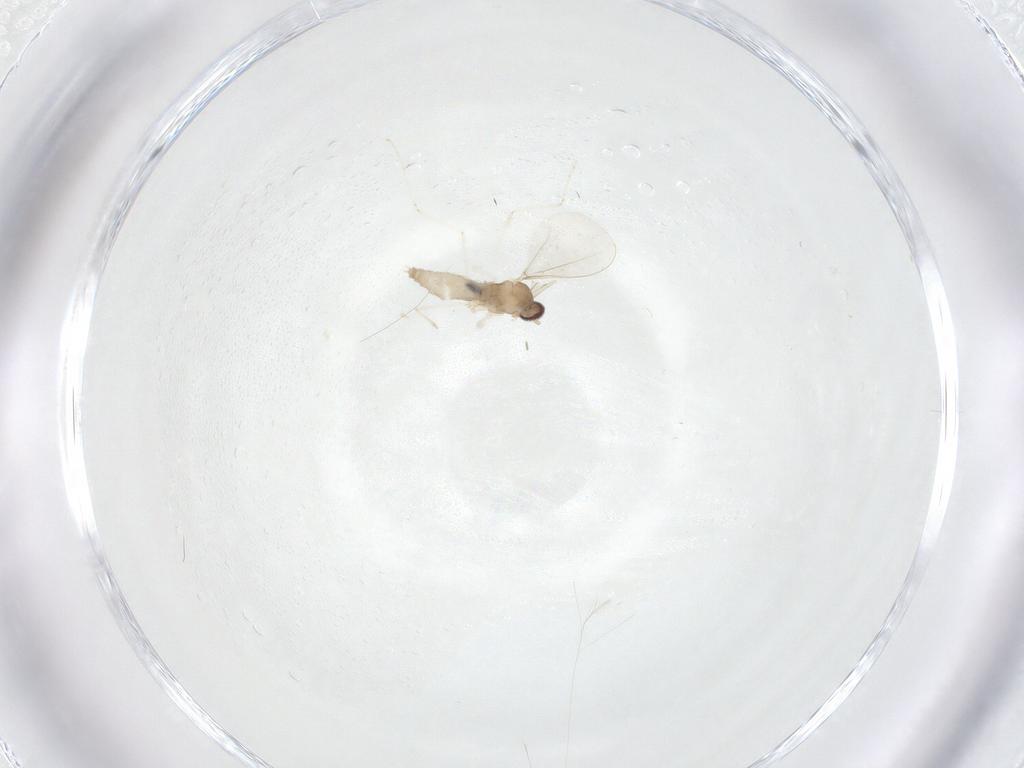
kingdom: Animalia
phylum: Arthropoda
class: Insecta
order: Diptera
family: Cecidomyiidae
